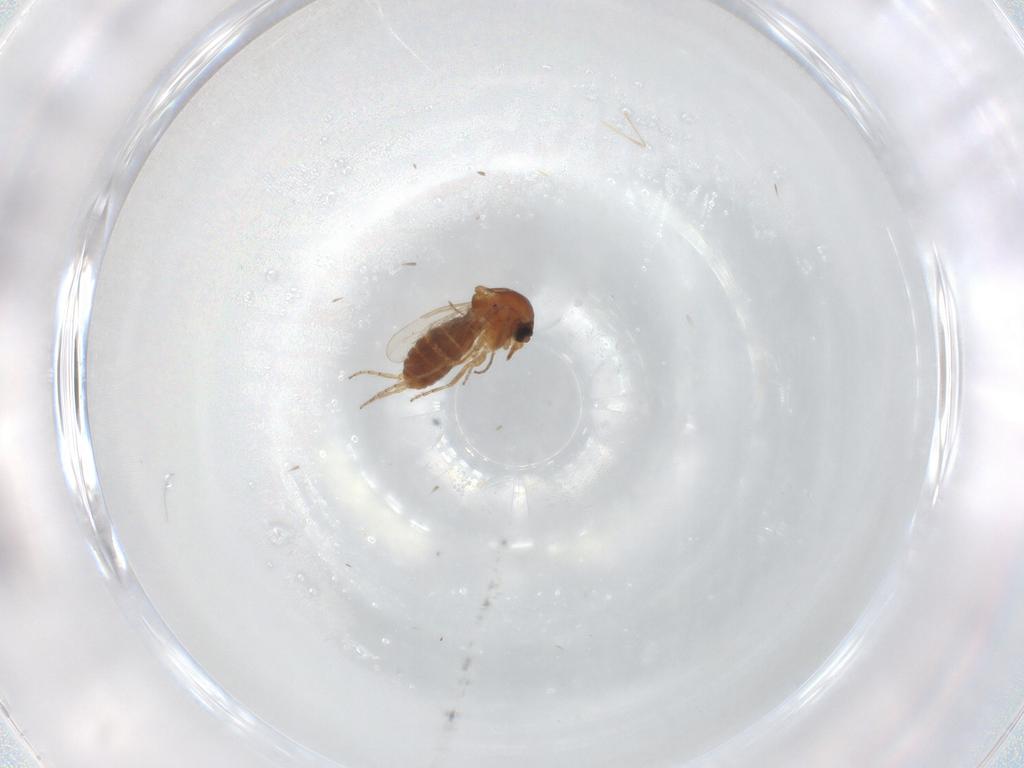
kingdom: Animalia
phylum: Arthropoda
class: Insecta
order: Diptera
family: Ceratopogonidae
